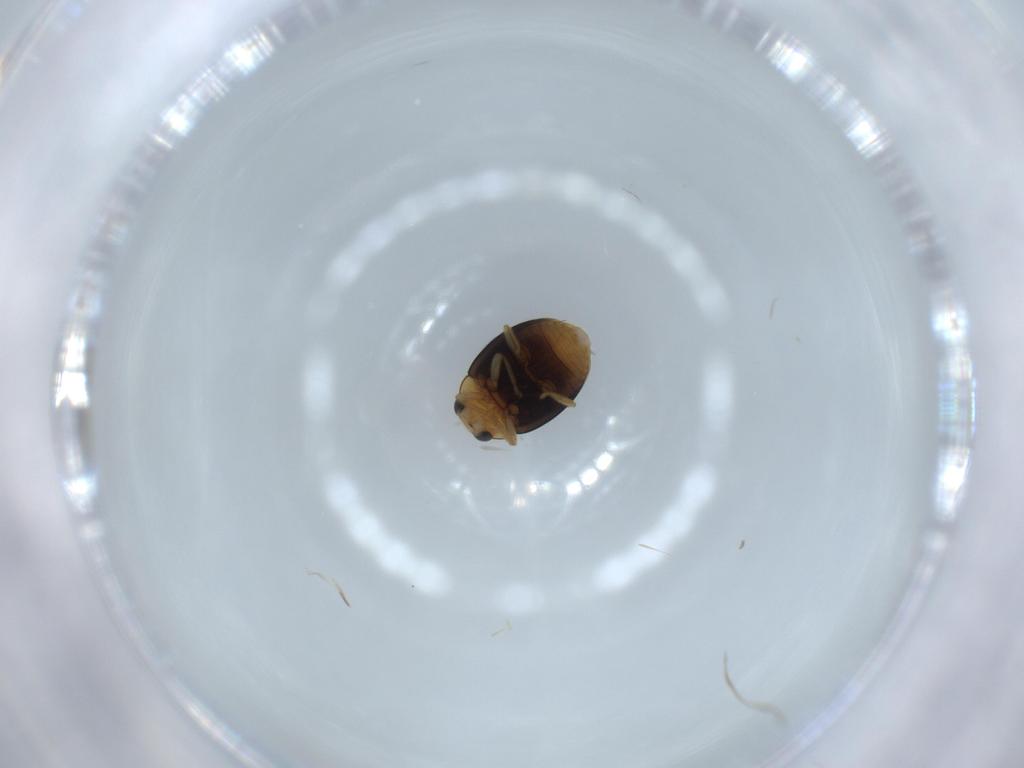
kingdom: Animalia
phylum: Arthropoda
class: Insecta
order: Coleoptera
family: Coccinellidae
